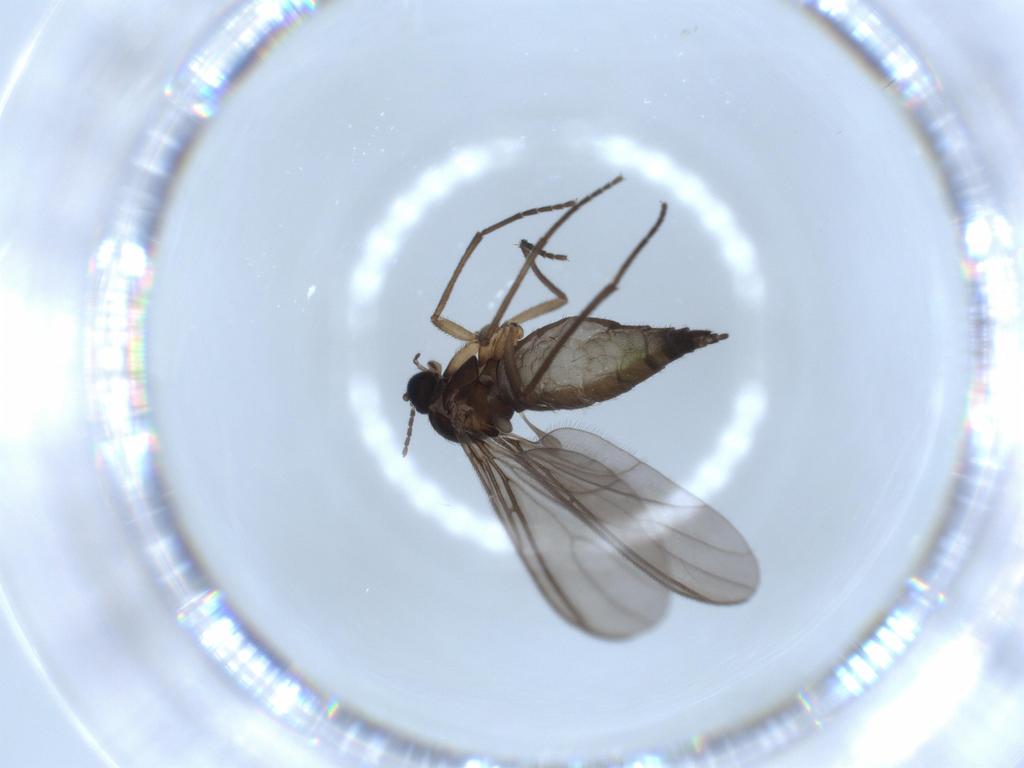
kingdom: Animalia
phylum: Arthropoda
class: Insecta
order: Diptera
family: Sciaridae
